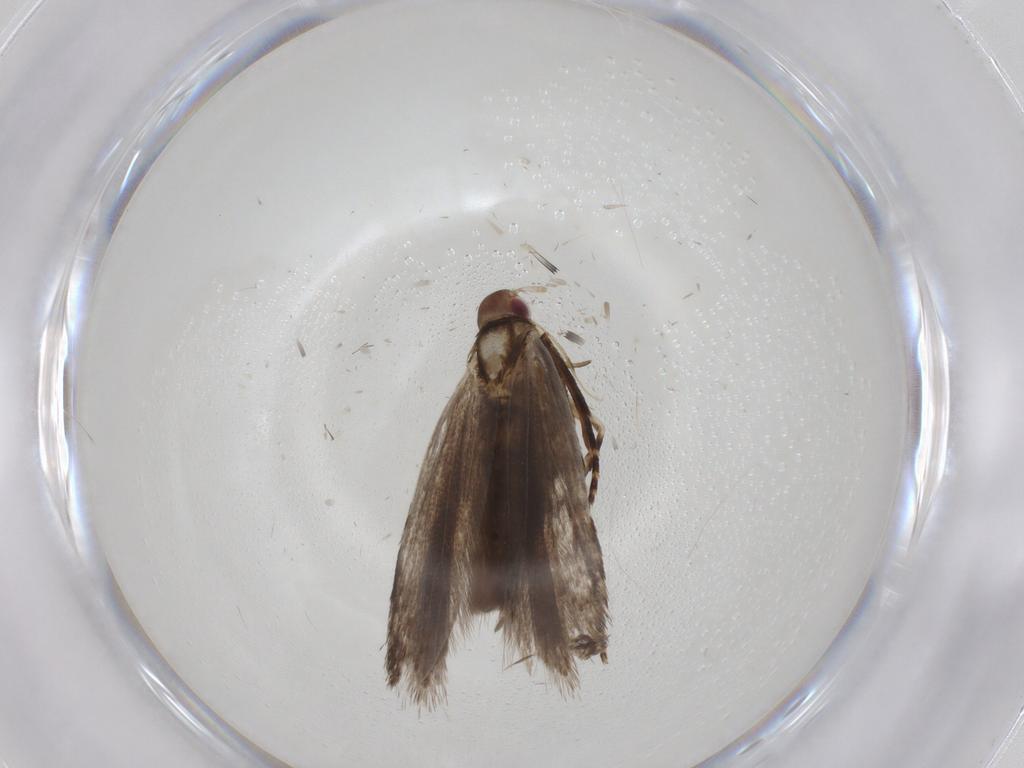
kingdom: Animalia
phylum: Arthropoda
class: Insecta
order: Lepidoptera
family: Gelechiidae
